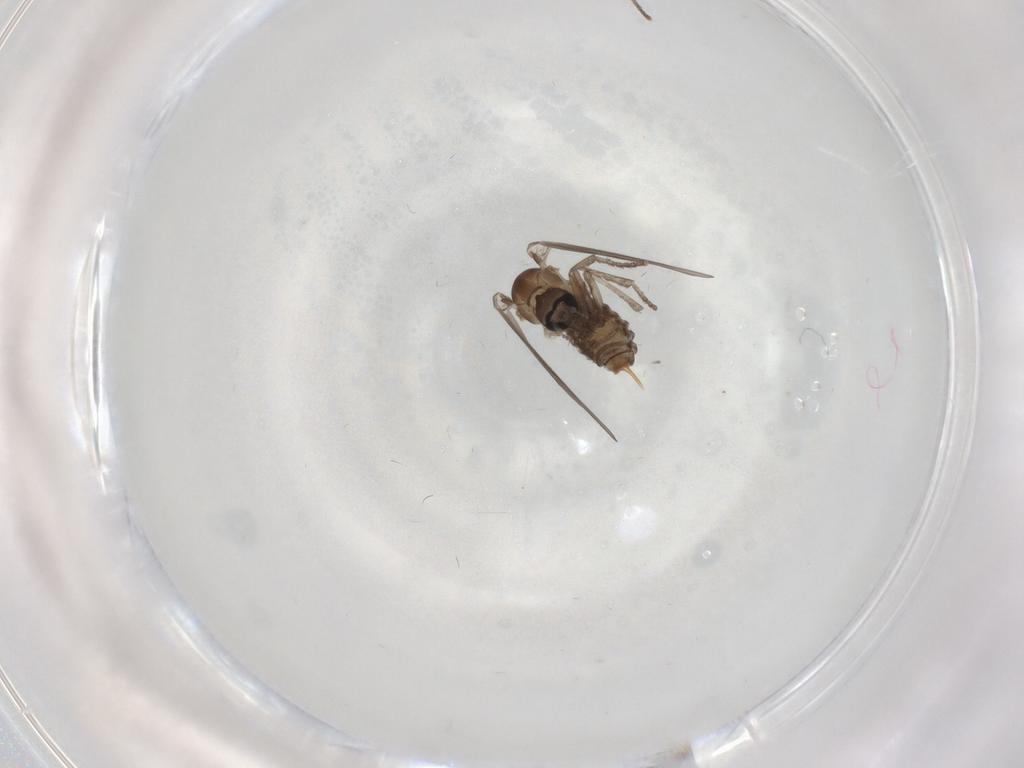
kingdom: Animalia
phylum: Arthropoda
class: Insecta
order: Diptera
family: Psychodidae
